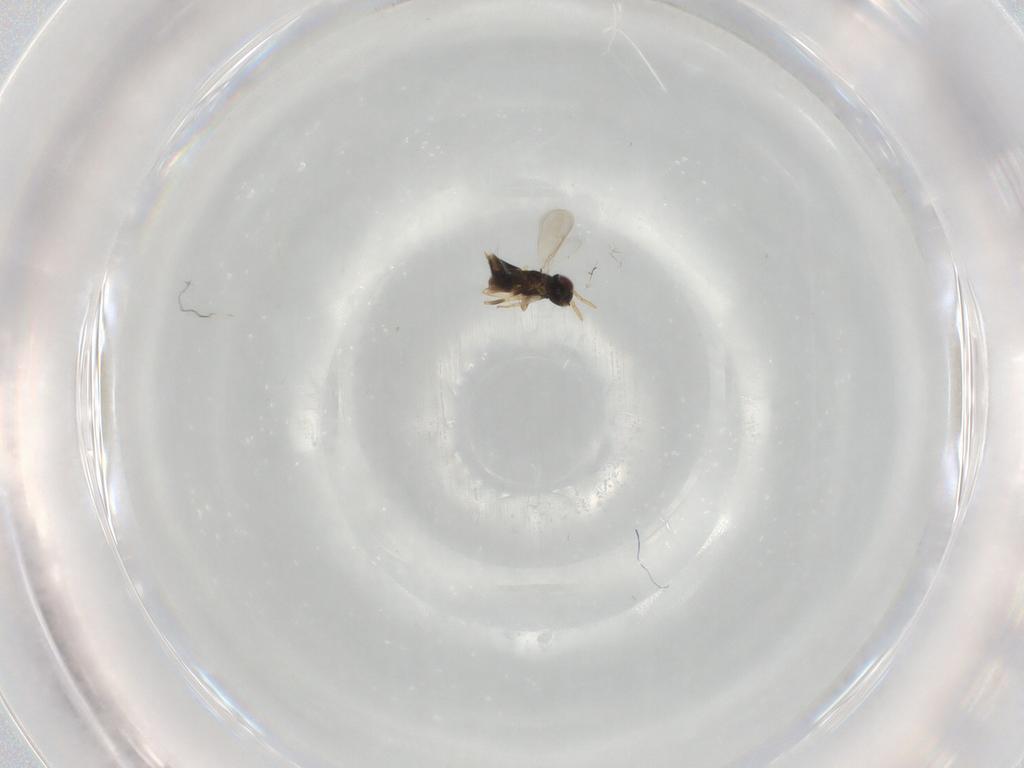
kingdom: Animalia
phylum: Arthropoda
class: Insecta
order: Hymenoptera
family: Aphelinidae
